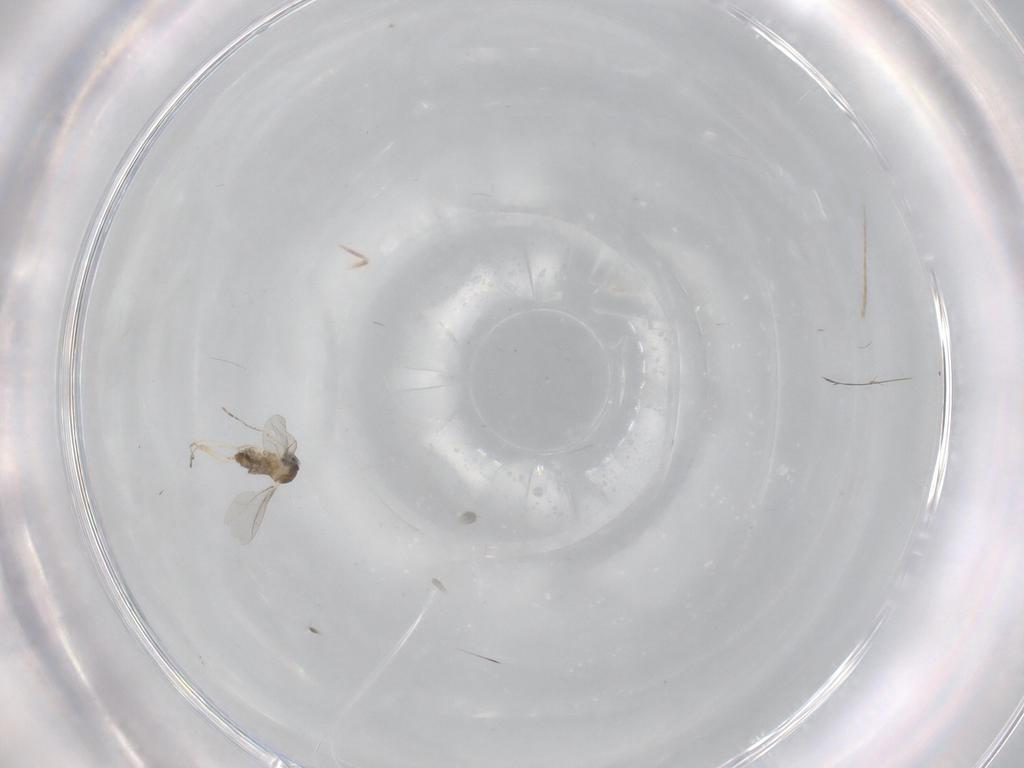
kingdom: Animalia
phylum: Arthropoda
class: Insecta
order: Diptera
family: Cecidomyiidae
